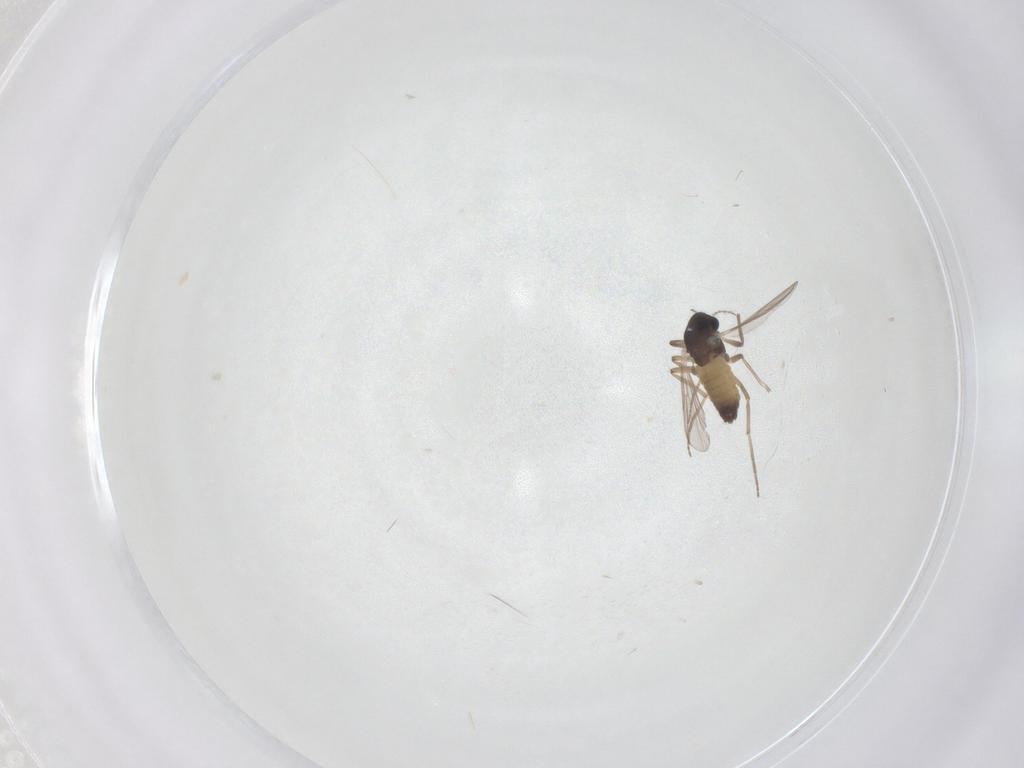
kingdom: Animalia
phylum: Arthropoda
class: Insecta
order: Diptera
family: Chironomidae
